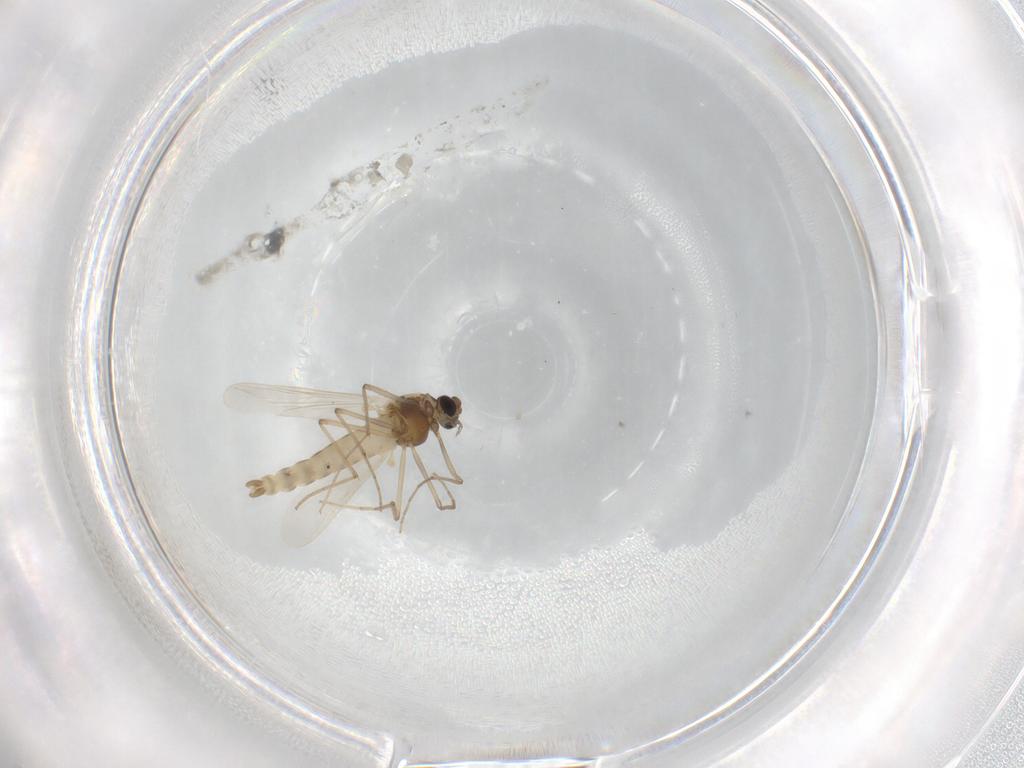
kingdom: Animalia
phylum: Arthropoda
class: Insecta
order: Diptera
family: Chironomidae
